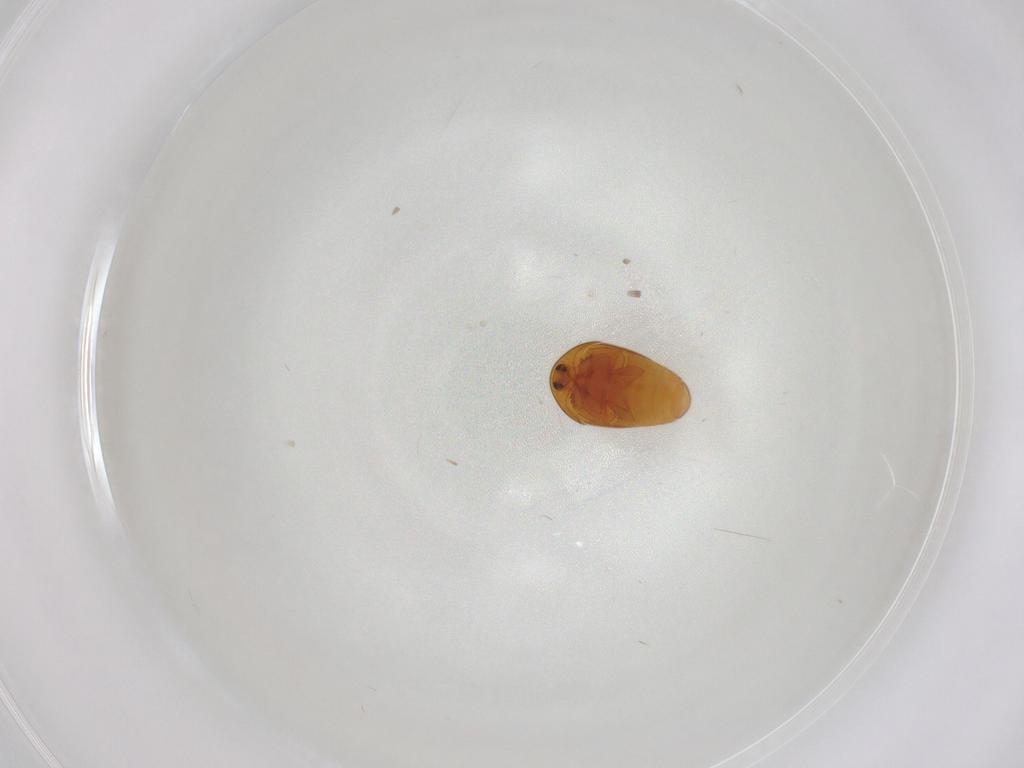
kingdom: Animalia
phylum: Arthropoda
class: Insecta
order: Coleoptera
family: Corylophidae
